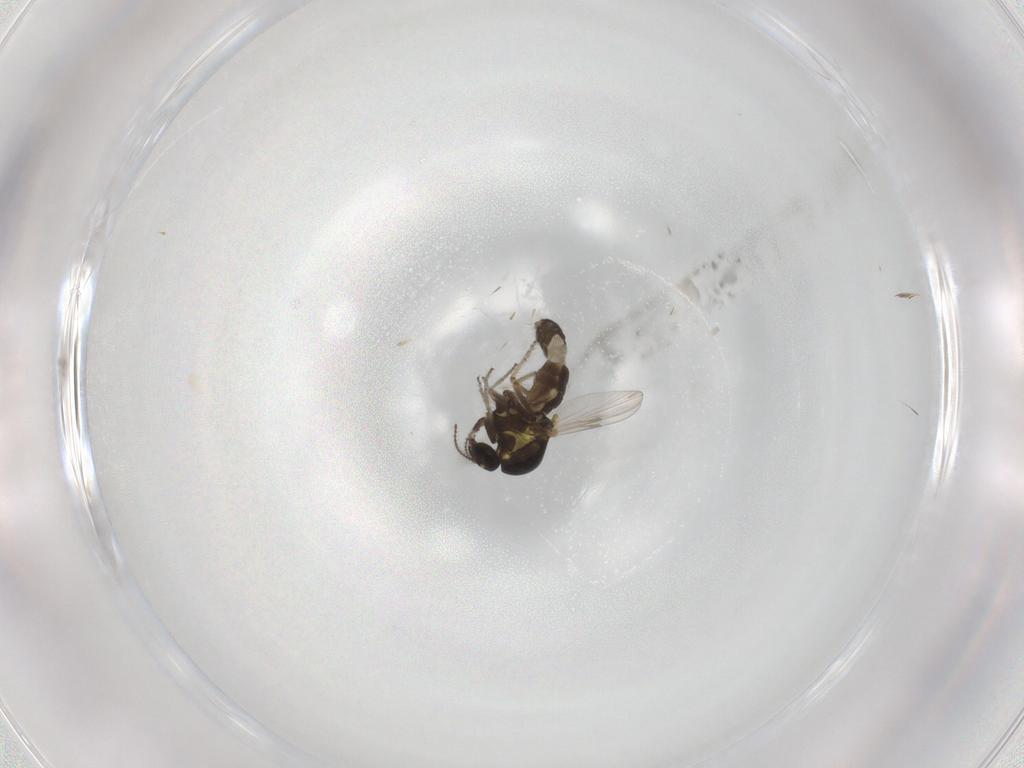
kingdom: Animalia
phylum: Arthropoda
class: Insecta
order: Diptera
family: Ceratopogonidae
